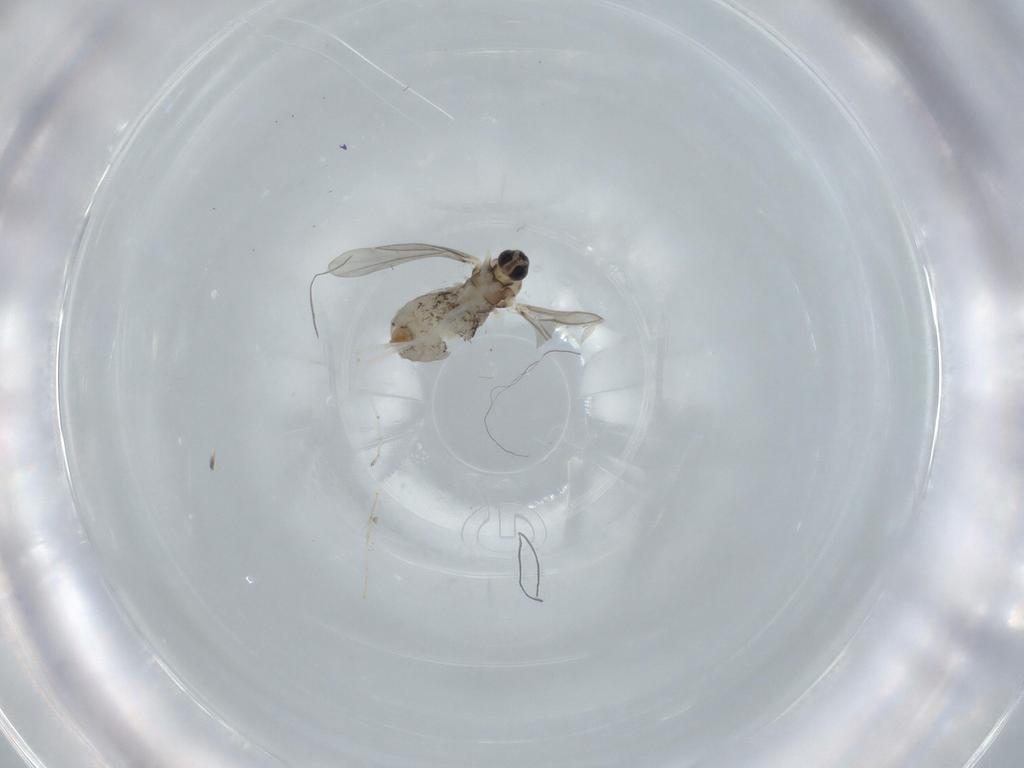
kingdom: Animalia
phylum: Arthropoda
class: Insecta
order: Diptera
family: Cecidomyiidae
